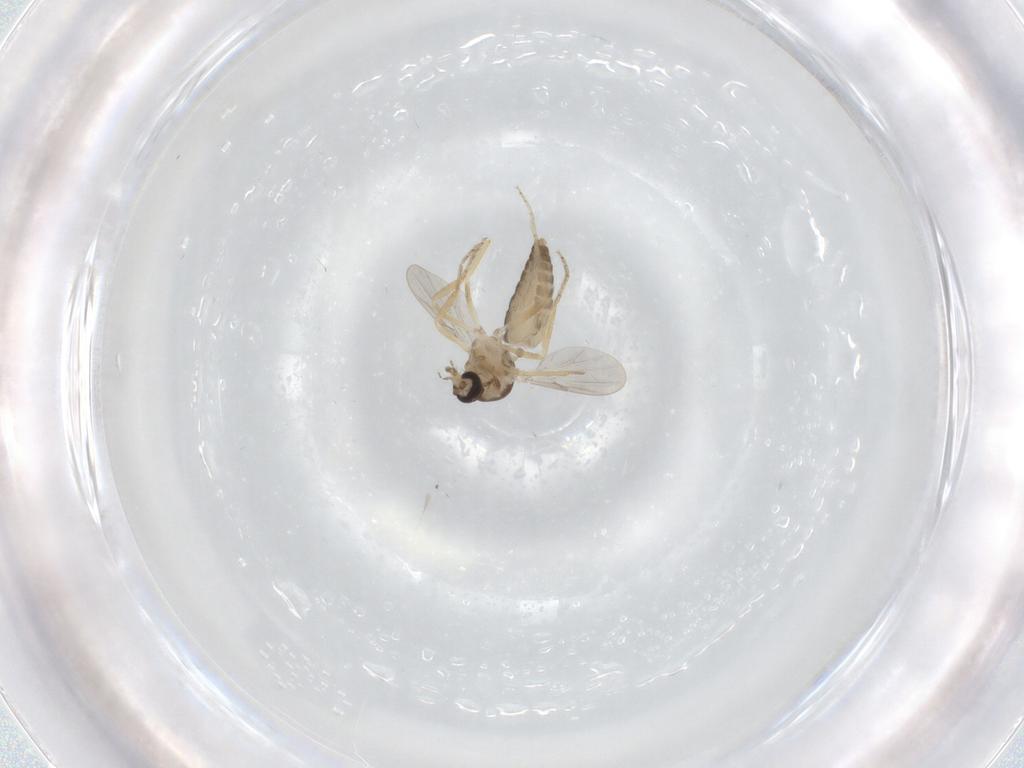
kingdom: Animalia
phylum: Arthropoda
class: Insecta
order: Diptera
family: Ceratopogonidae
